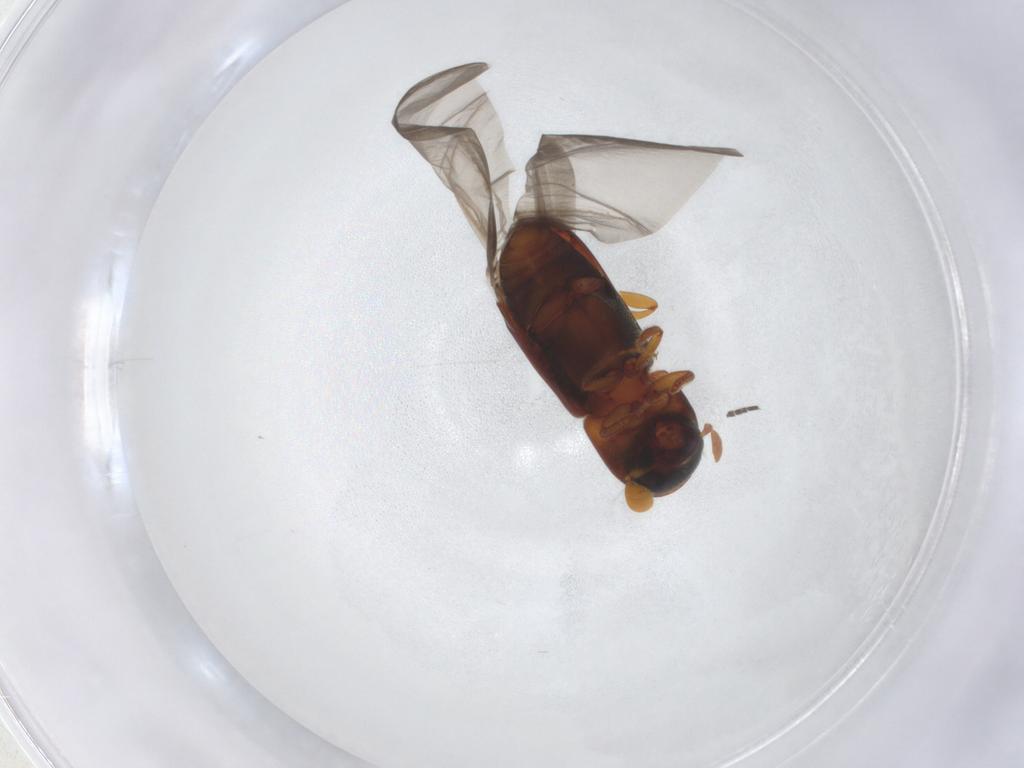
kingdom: Animalia
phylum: Arthropoda
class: Insecta
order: Coleoptera
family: Curculionidae
